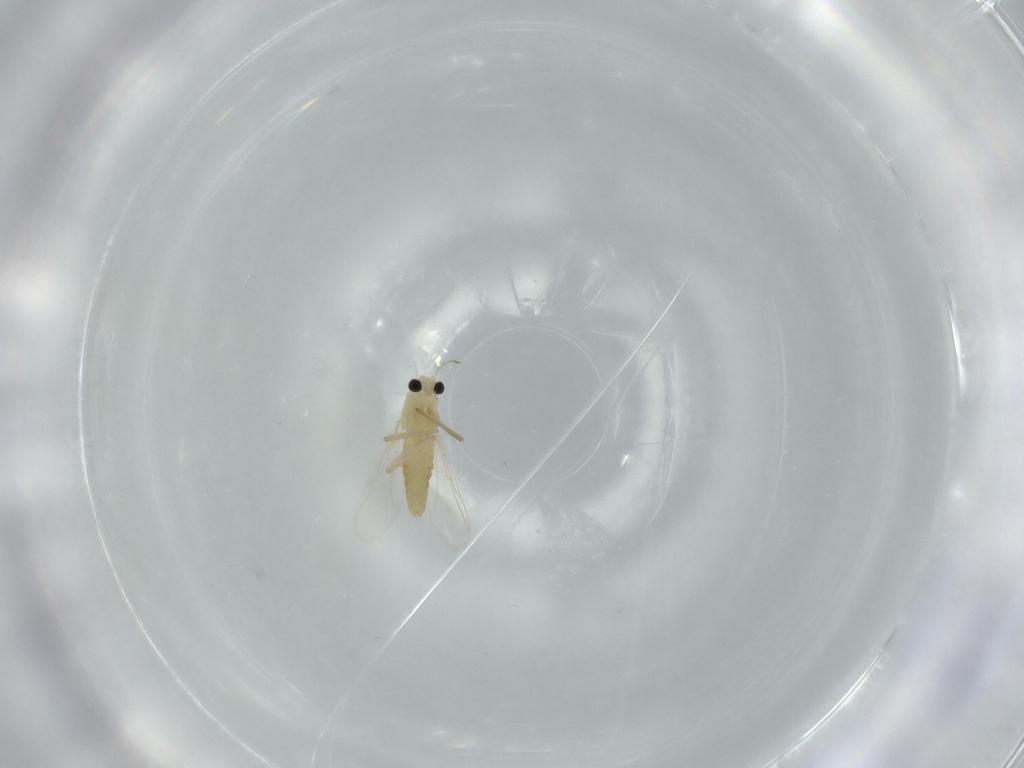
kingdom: Animalia
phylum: Arthropoda
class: Insecta
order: Diptera
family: Chironomidae
